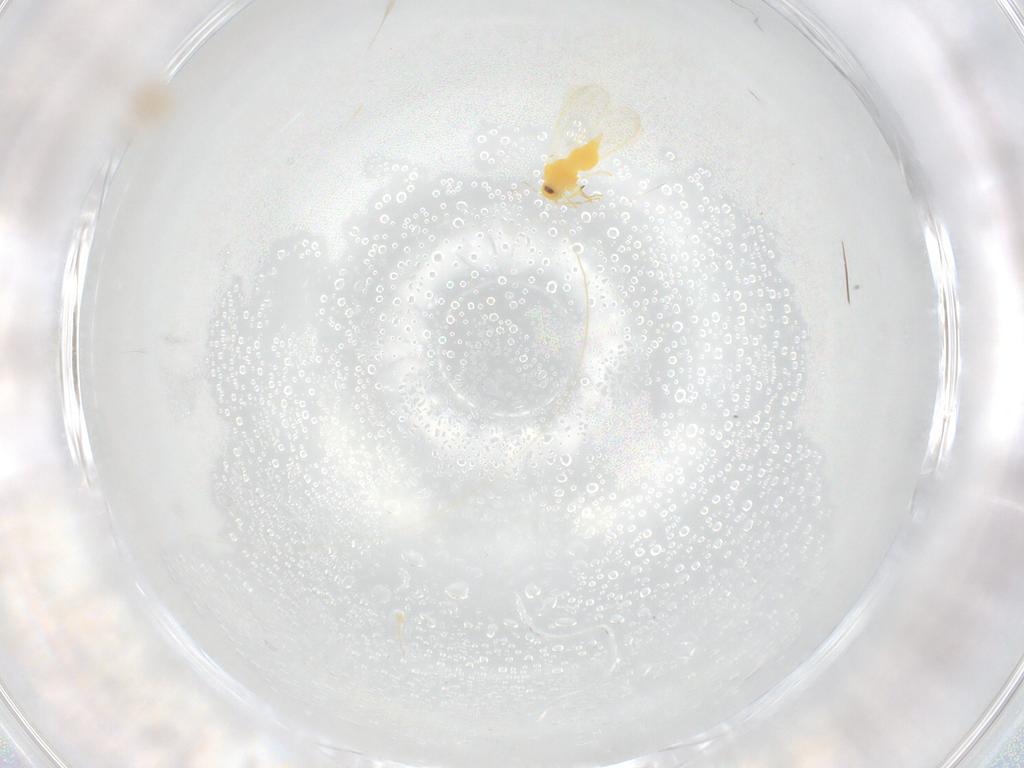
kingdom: Animalia
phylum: Arthropoda
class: Insecta
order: Hemiptera
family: Aleyrodidae
